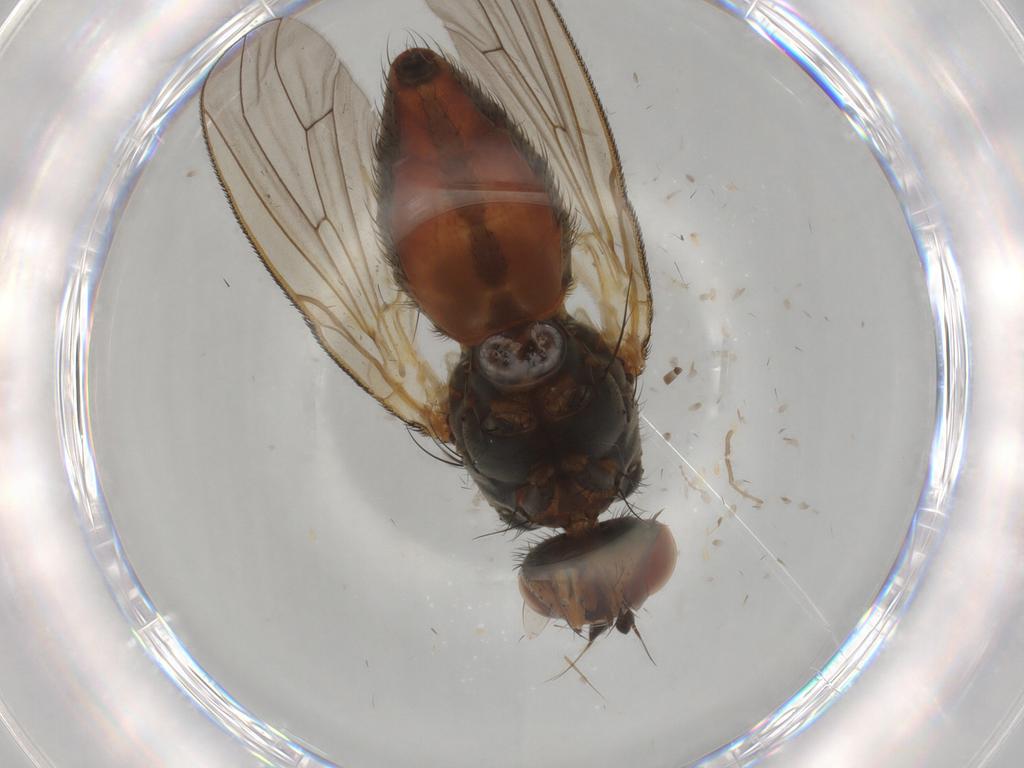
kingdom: Animalia
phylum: Arthropoda
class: Insecta
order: Diptera
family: Anthomyiidae
